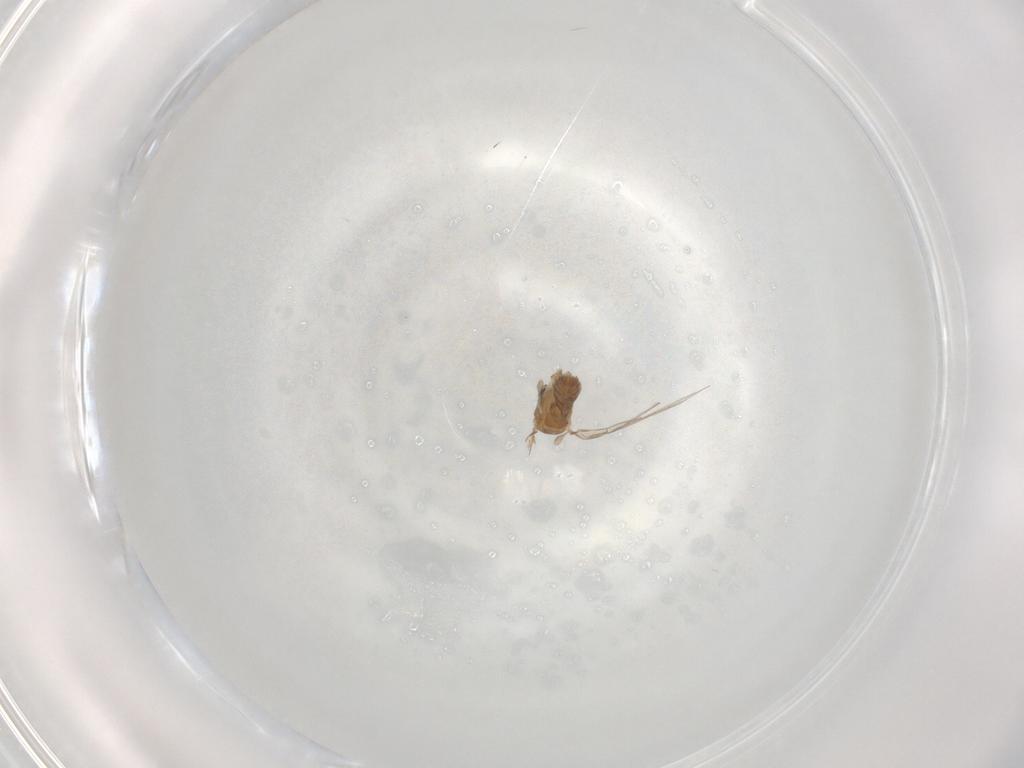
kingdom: Animalia
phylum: Arthropoda
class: Insecta
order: Diptera
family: Psychodidae
